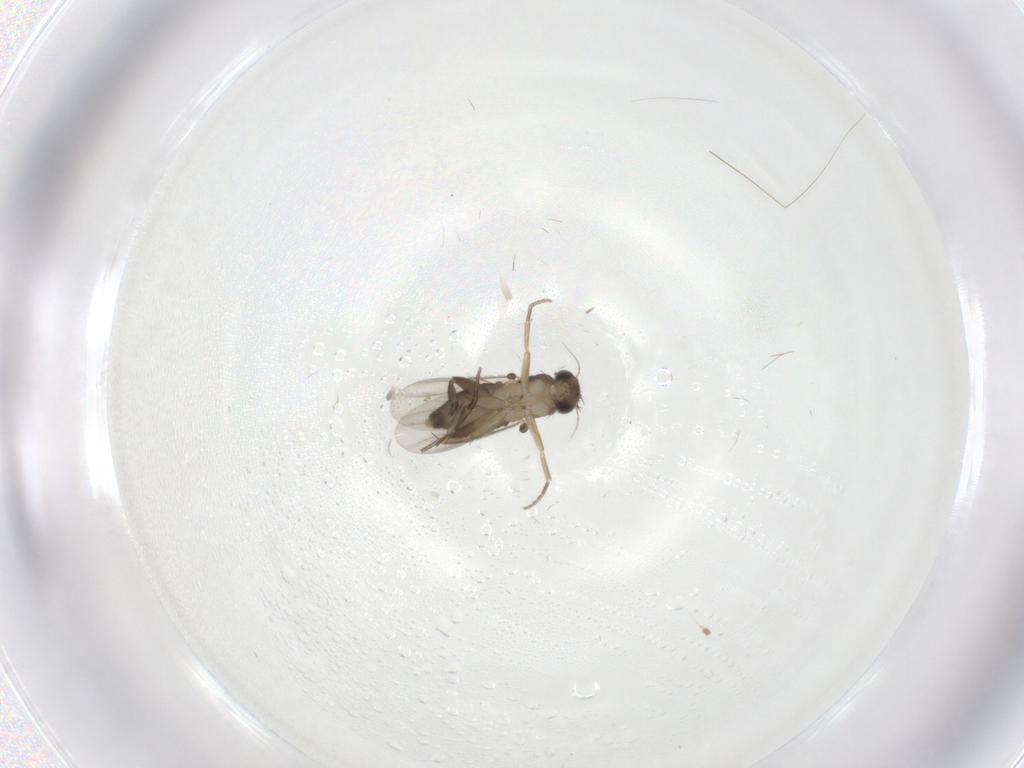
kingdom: Animalia
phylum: Arthropoda
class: Insecta
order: Diptera
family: Phoridae
